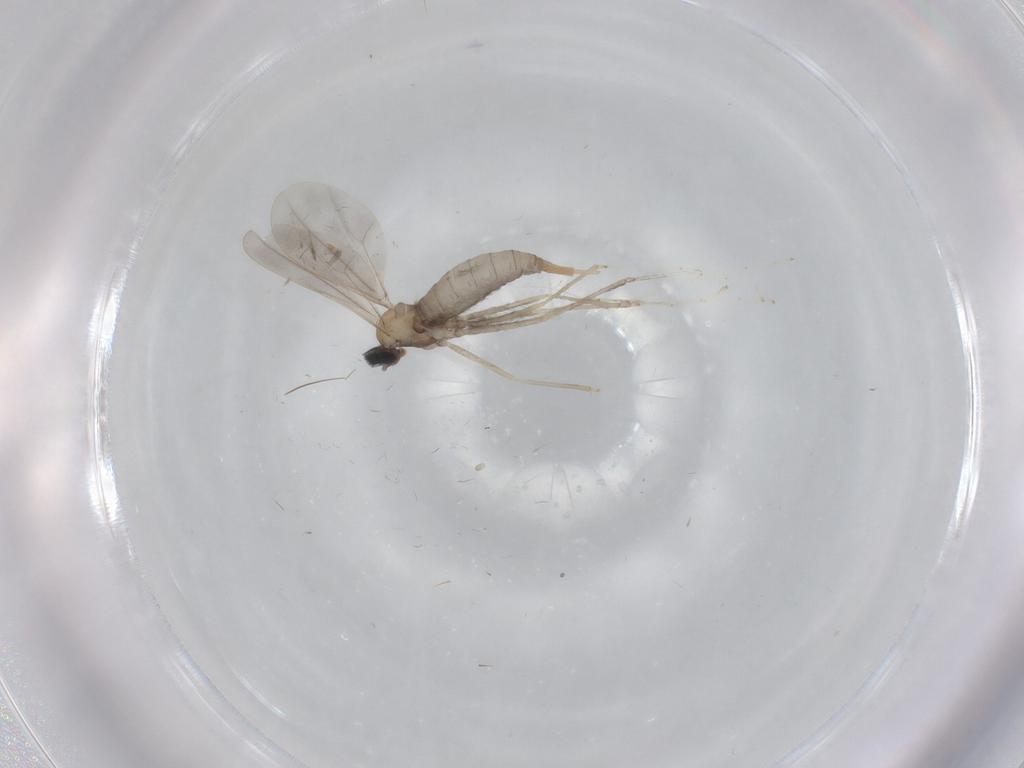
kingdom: Animalia
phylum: Arthropoda
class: Insecta
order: Diptera
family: Cecidomyiidae
